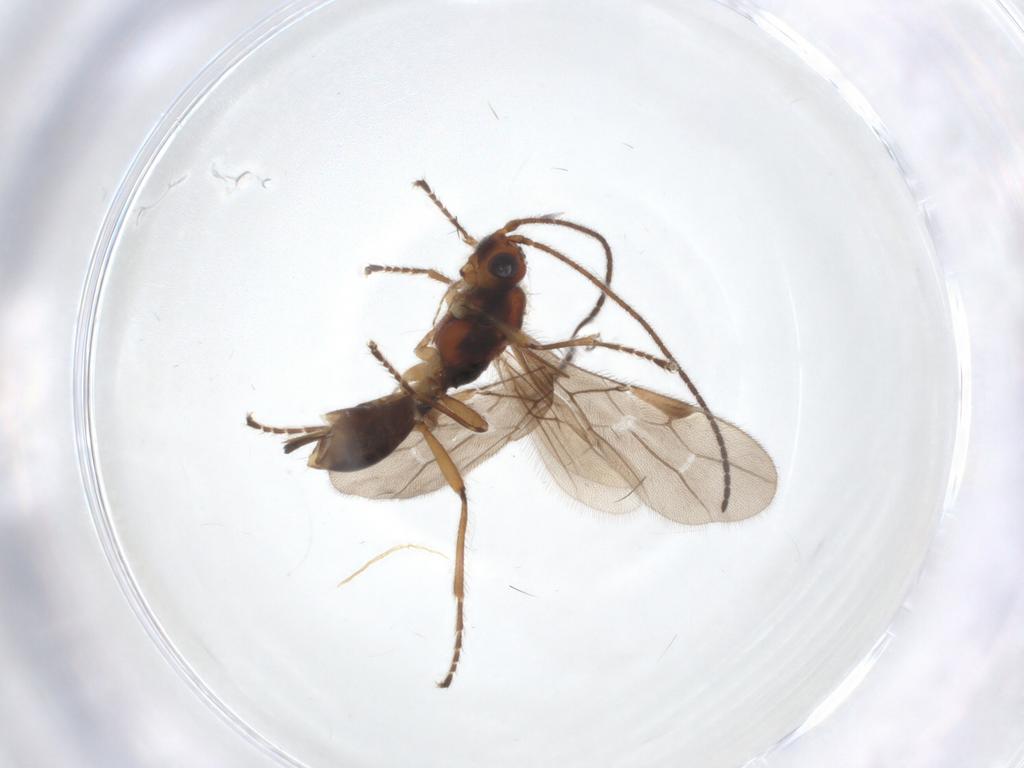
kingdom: Animalia
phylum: Arthropoda
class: Insecta
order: Hymenoptera
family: Braconidae
